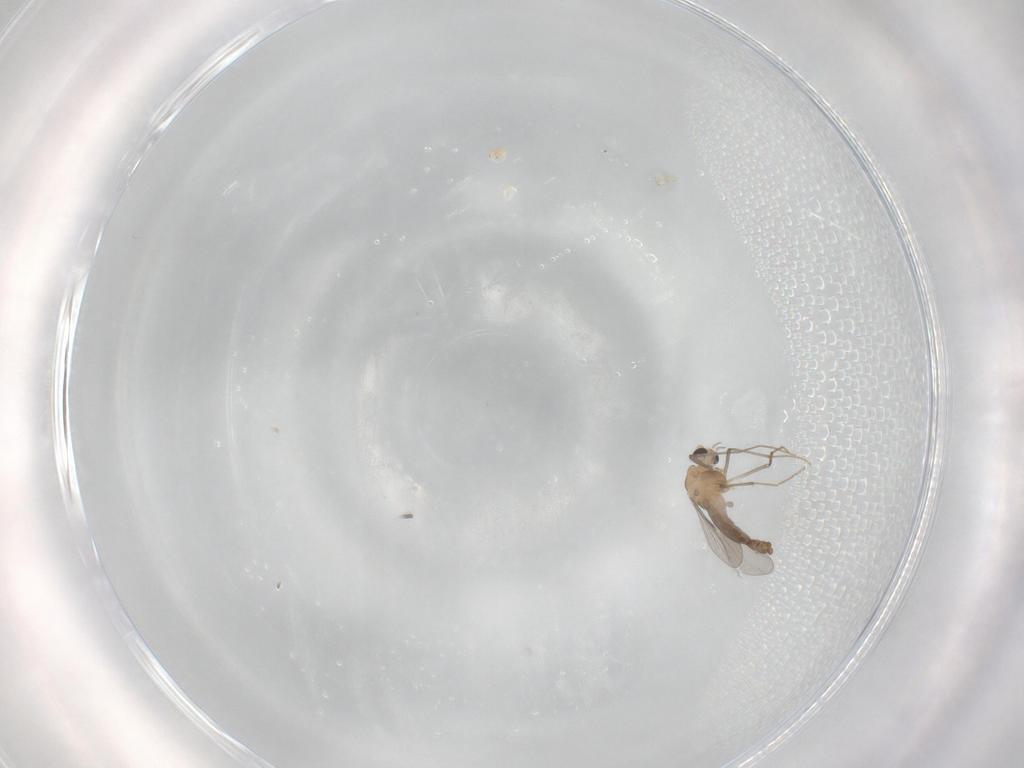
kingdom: Animalia
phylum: Arthropoda
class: Insecta
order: Diptera
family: Chironomidae
